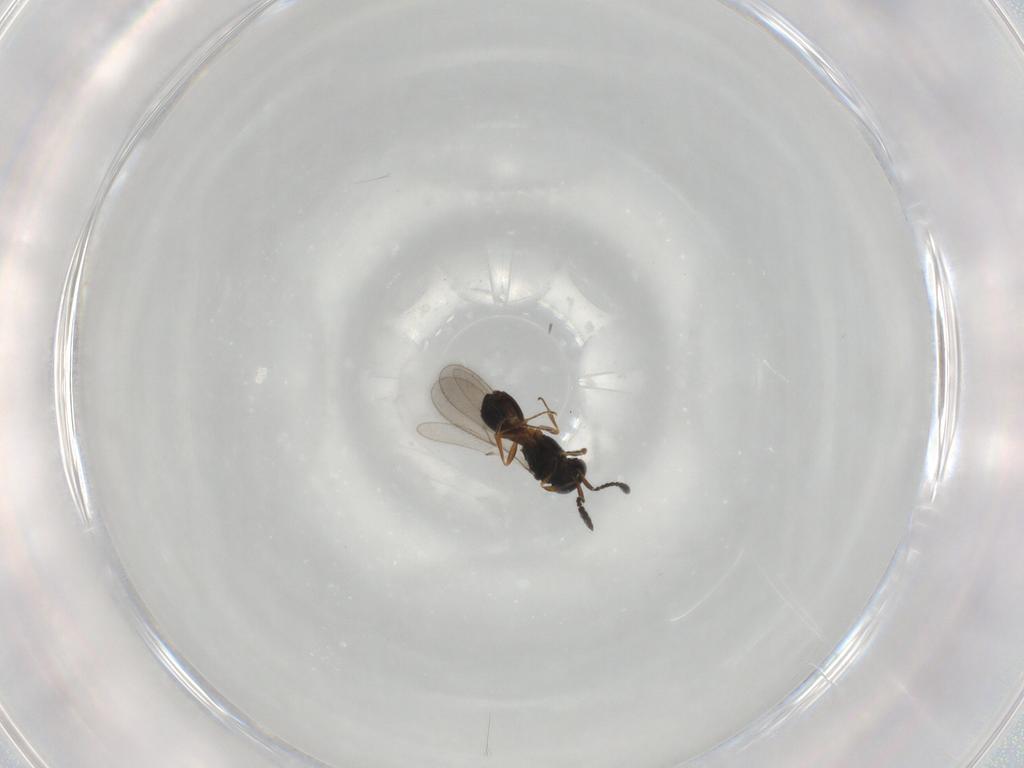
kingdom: Animalia
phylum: Arthropoda
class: Insecta
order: Hymenoptera
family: Scelionidae
